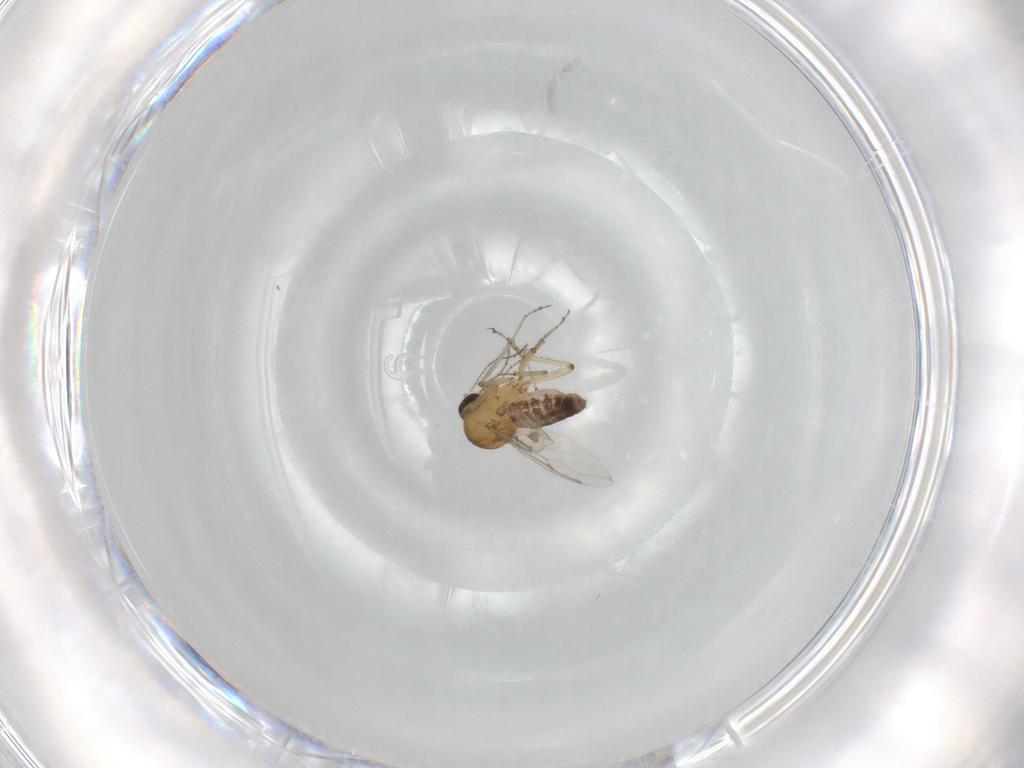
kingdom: Animalia
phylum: Arthropoda
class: Insecta
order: Diptera
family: Ceratopogonidae
